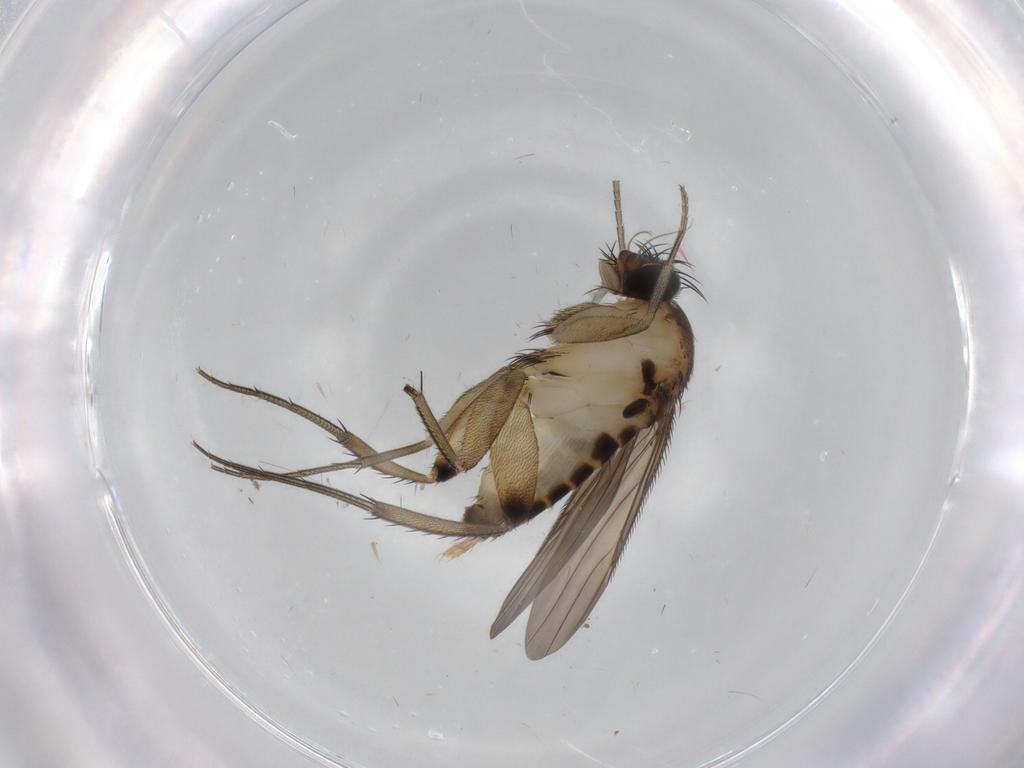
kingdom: Animalia
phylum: Arthropoda
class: Insecta
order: Diptera
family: Phoridae
